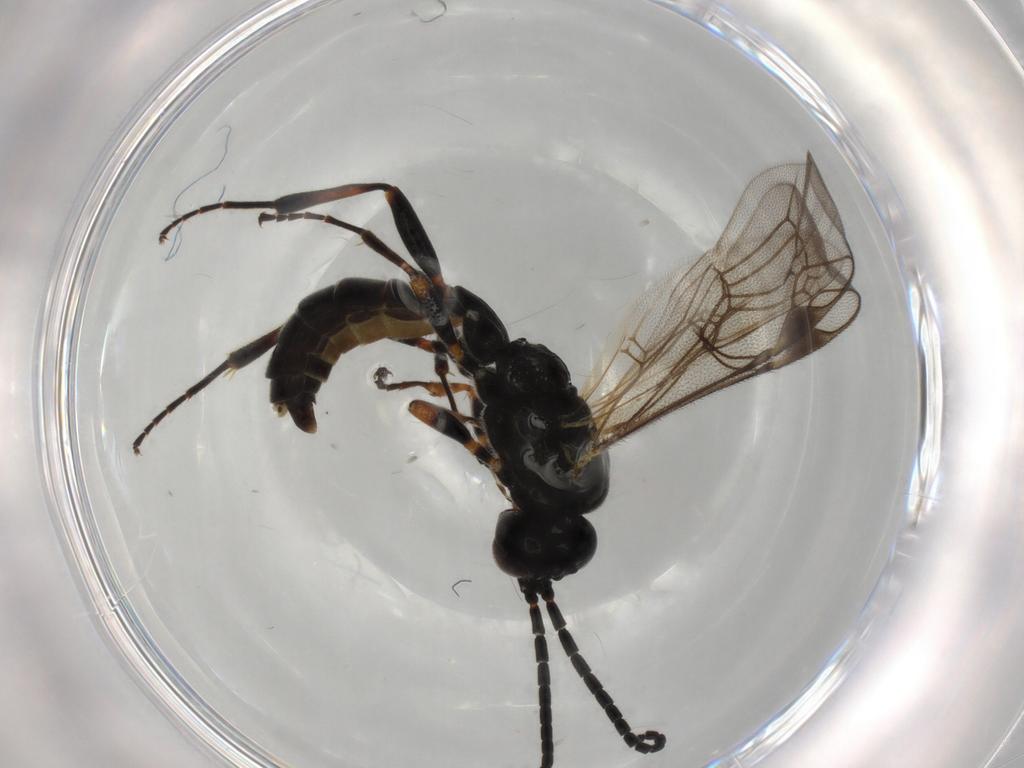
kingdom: Animalia
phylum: Arthropoda
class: Insecta
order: Hymenoptera
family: Ichneumonidae
